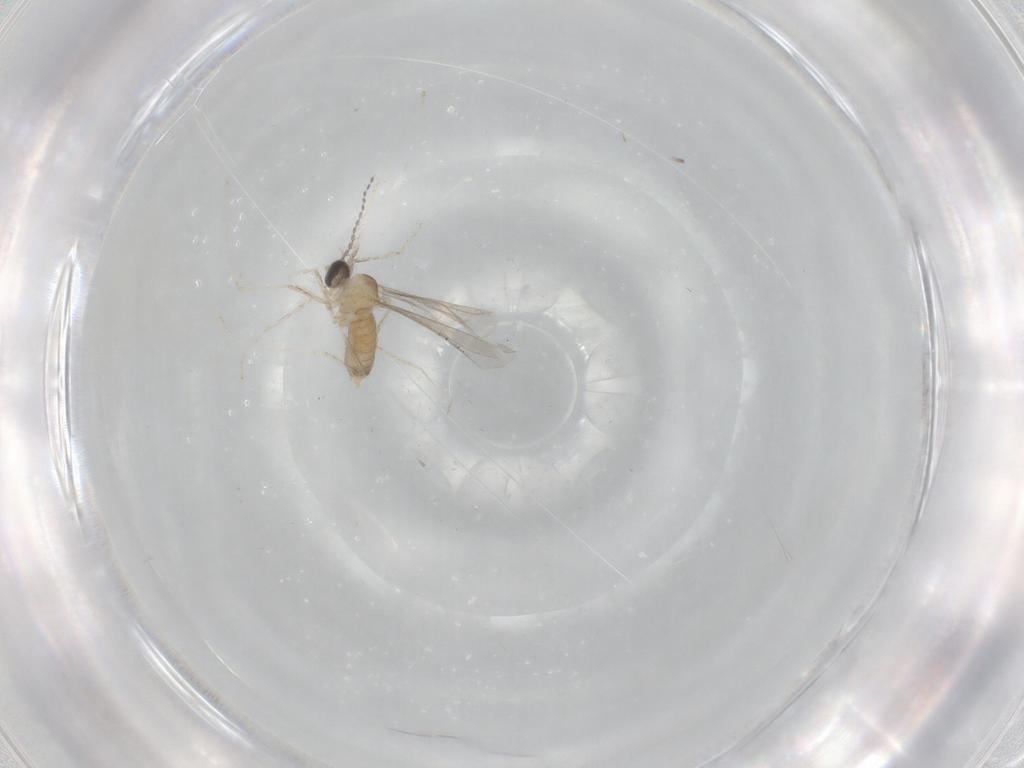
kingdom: Animalia
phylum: Arthropoda
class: Insecta
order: Diptera
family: Cecidomyiidae
